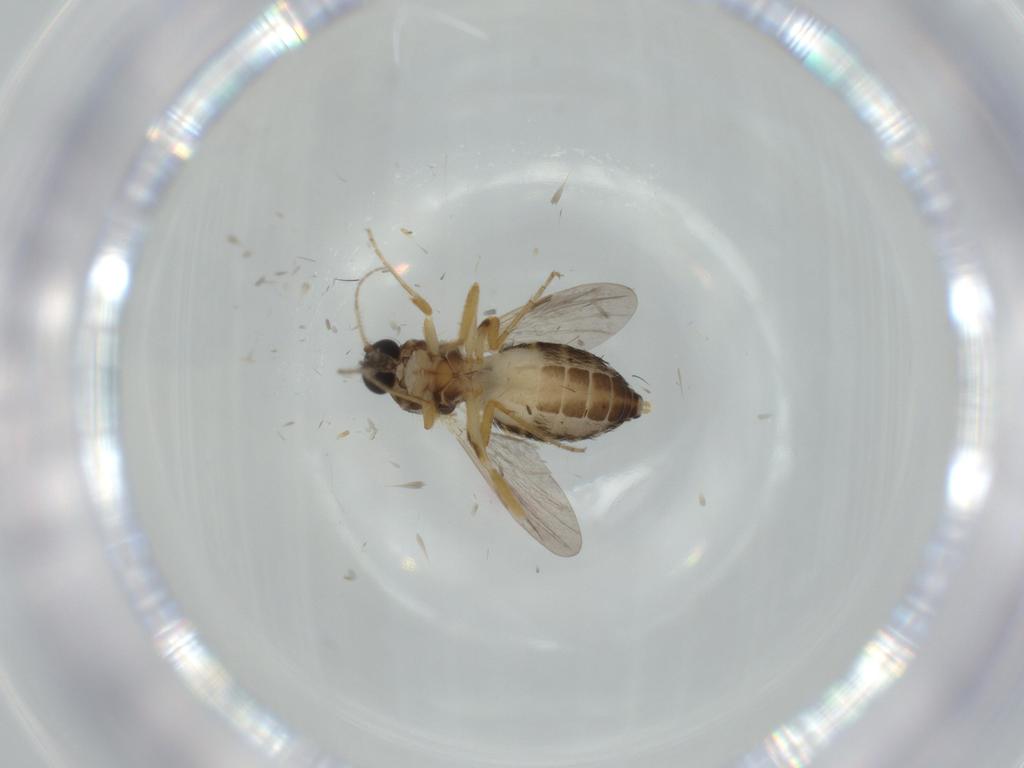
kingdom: Animalia
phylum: Arthropoda
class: Insecta
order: Diptera
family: Ceratopogonidae
